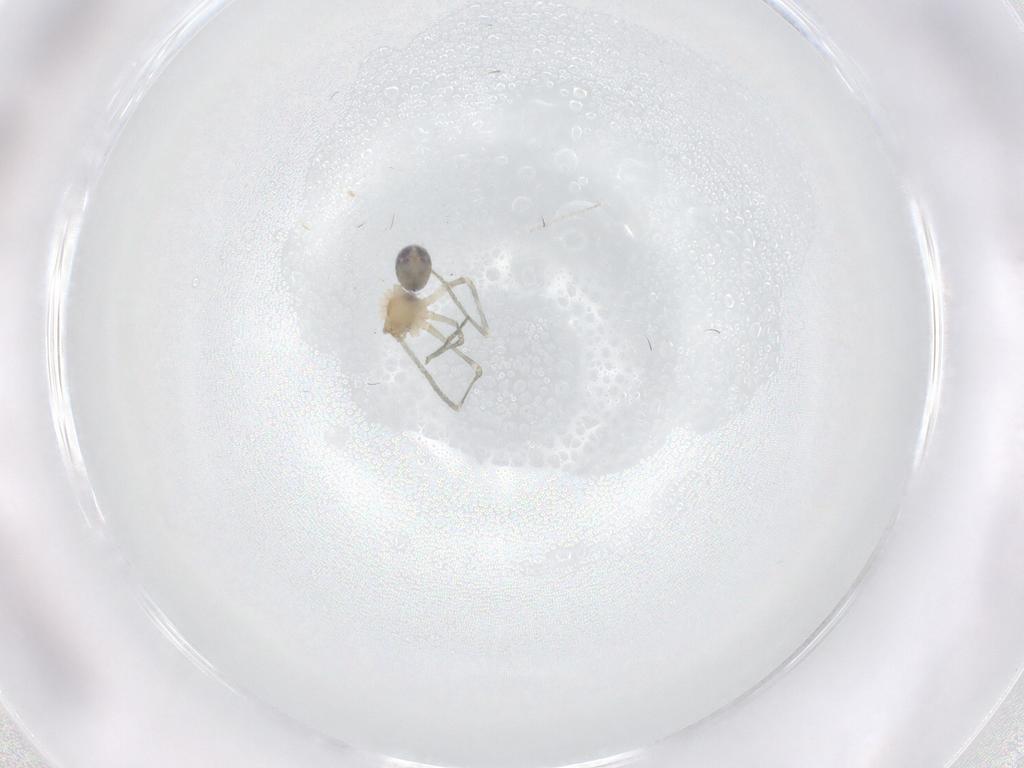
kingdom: Animalia
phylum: Arthropoda
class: Arachnida
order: Araneae
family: Pholcidae
